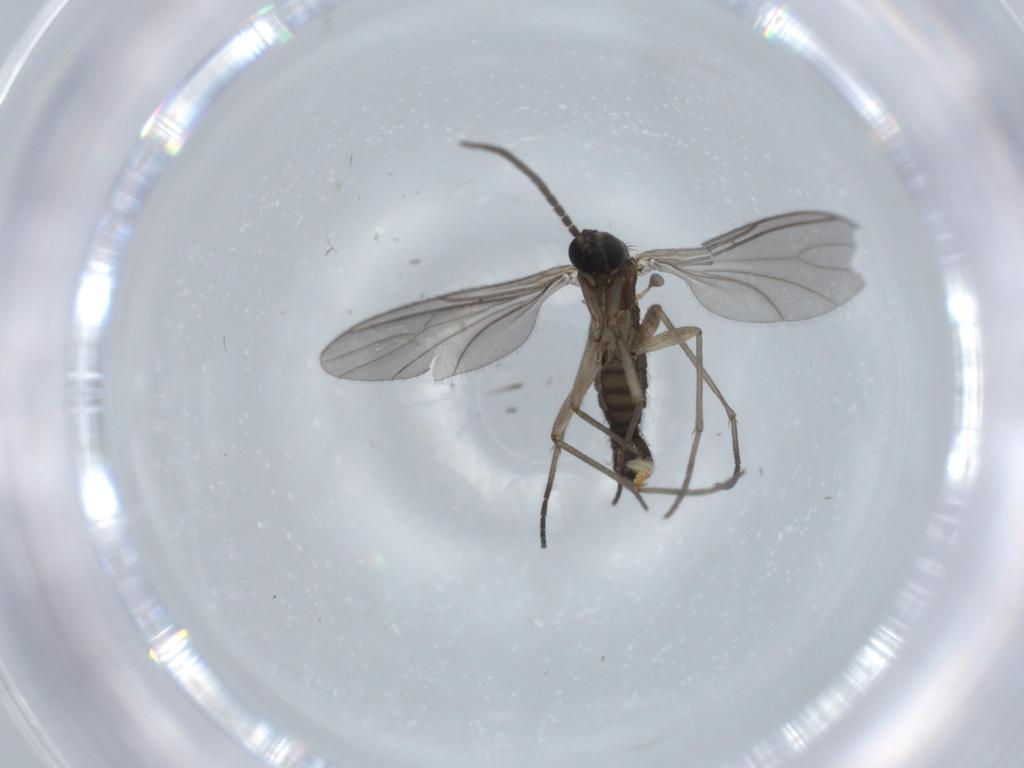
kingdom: Animalia
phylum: Arthropoda
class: Insecta
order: Diptera
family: Sciaridae
